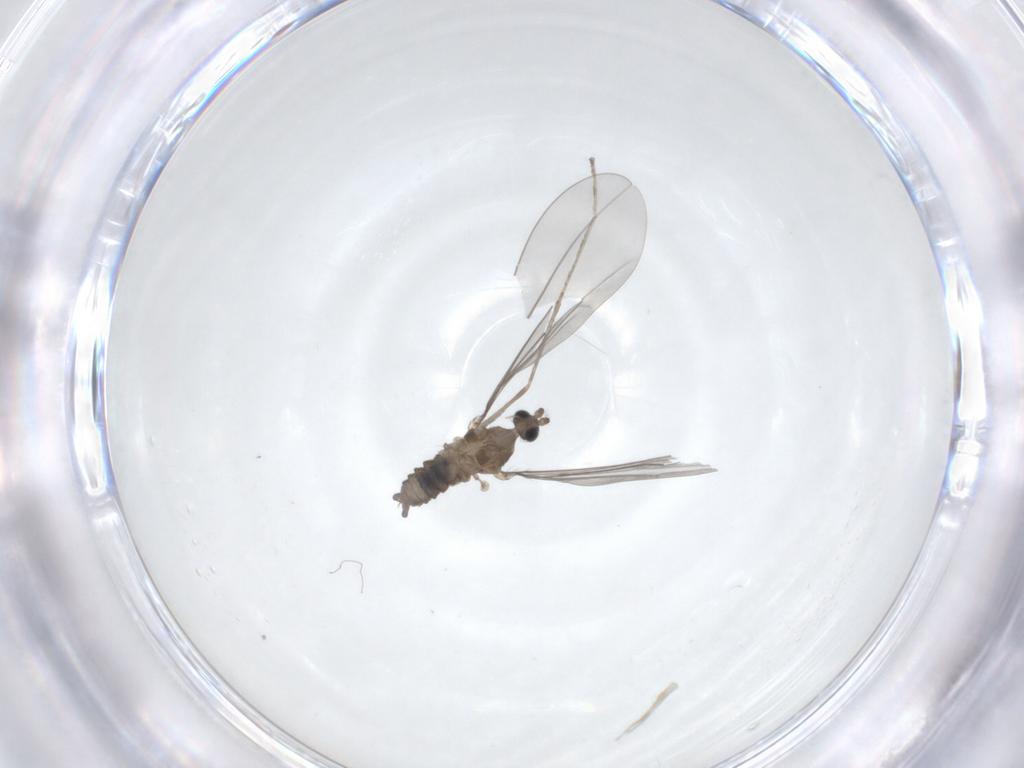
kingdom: Animalia
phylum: Arthropoda
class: Insecta
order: Diptera
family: Cecidomyiidae
